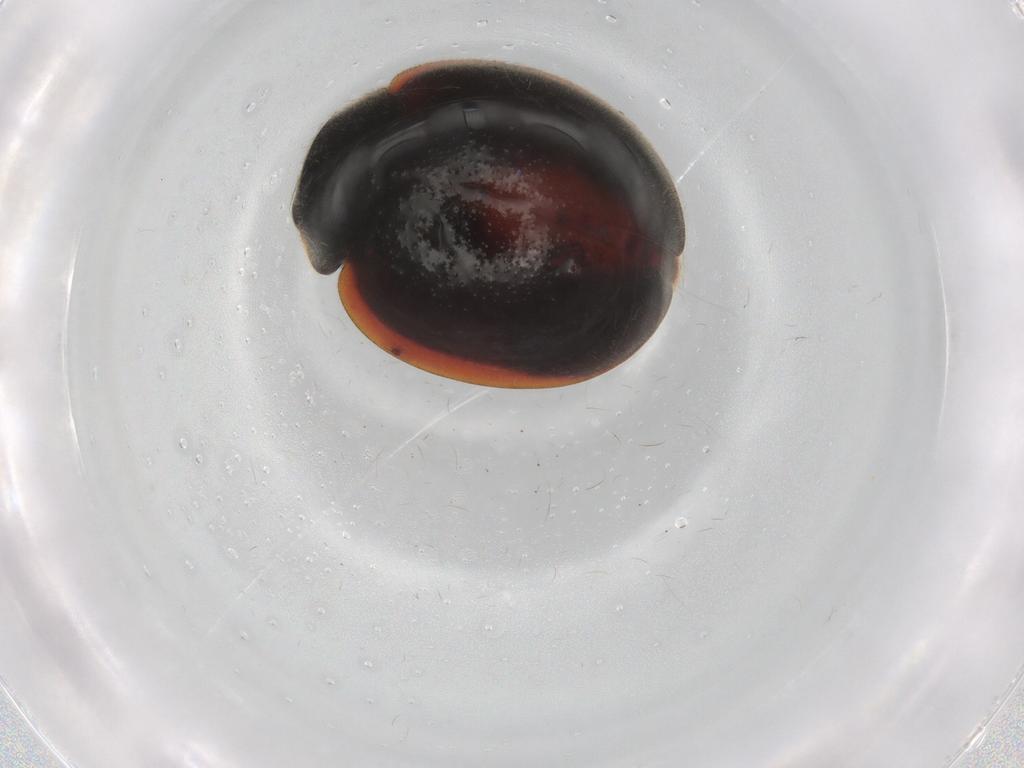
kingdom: Animalia
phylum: Arthropoda
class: Insecta
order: Coleoptera
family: Coccinellidae
